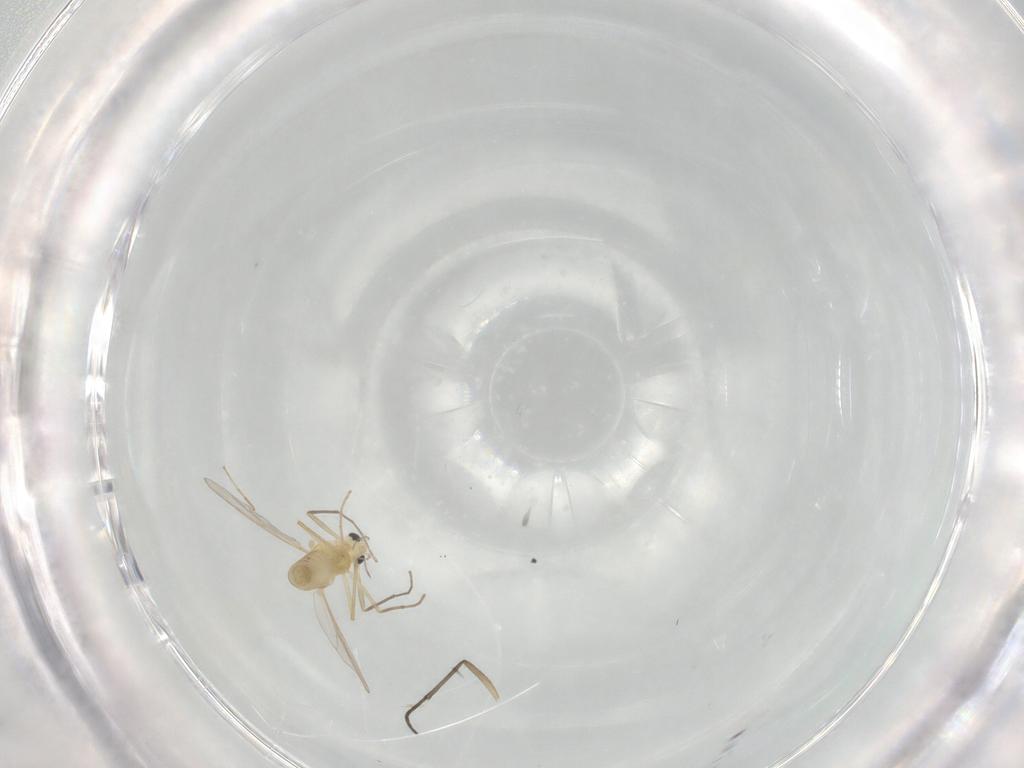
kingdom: Animalia
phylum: Arthropoda
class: Insecta
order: Diptera
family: Chironomidae
